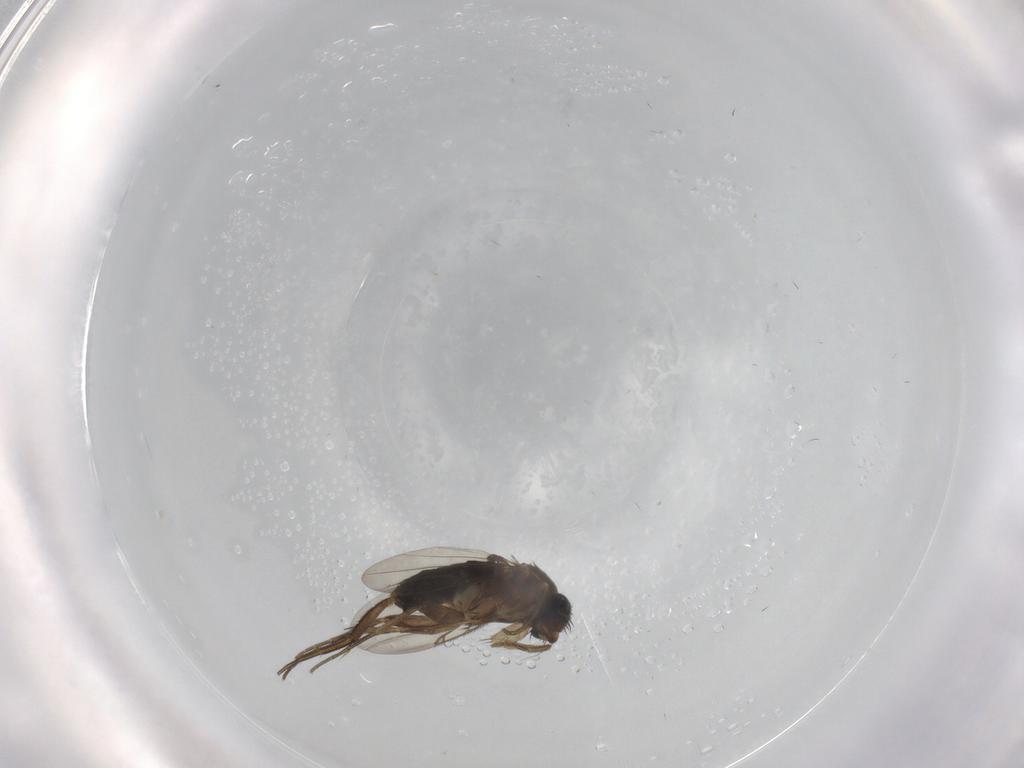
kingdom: Animalia
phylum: Arthropoda
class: Insecta
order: Diptera
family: Phoridae
